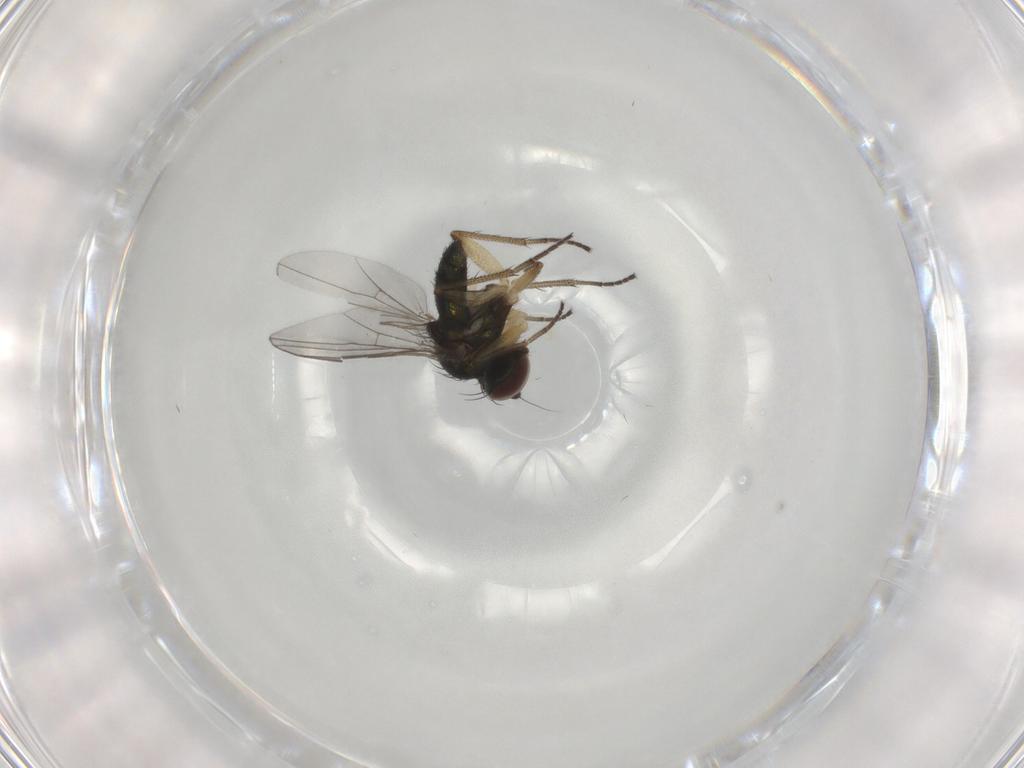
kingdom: Animalia
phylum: Arthropoda
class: Insecta
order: Diptera
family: Dolichopodidae
